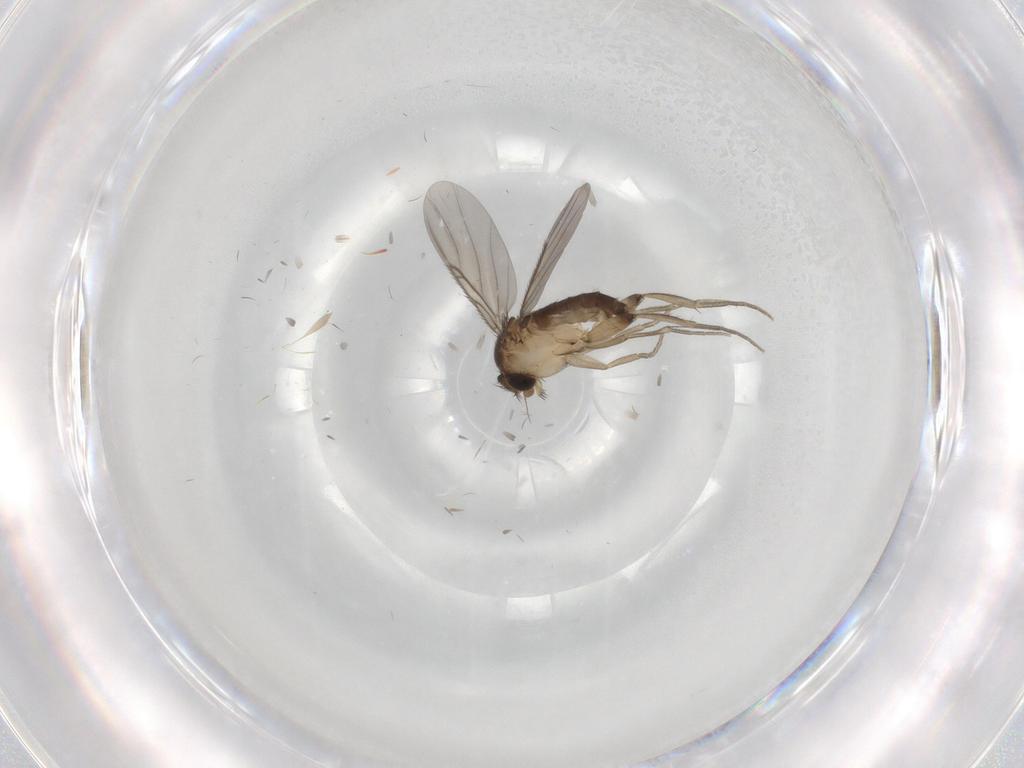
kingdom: Animalia
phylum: Arthropoda
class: Insecta
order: Diptera
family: Phoridae
